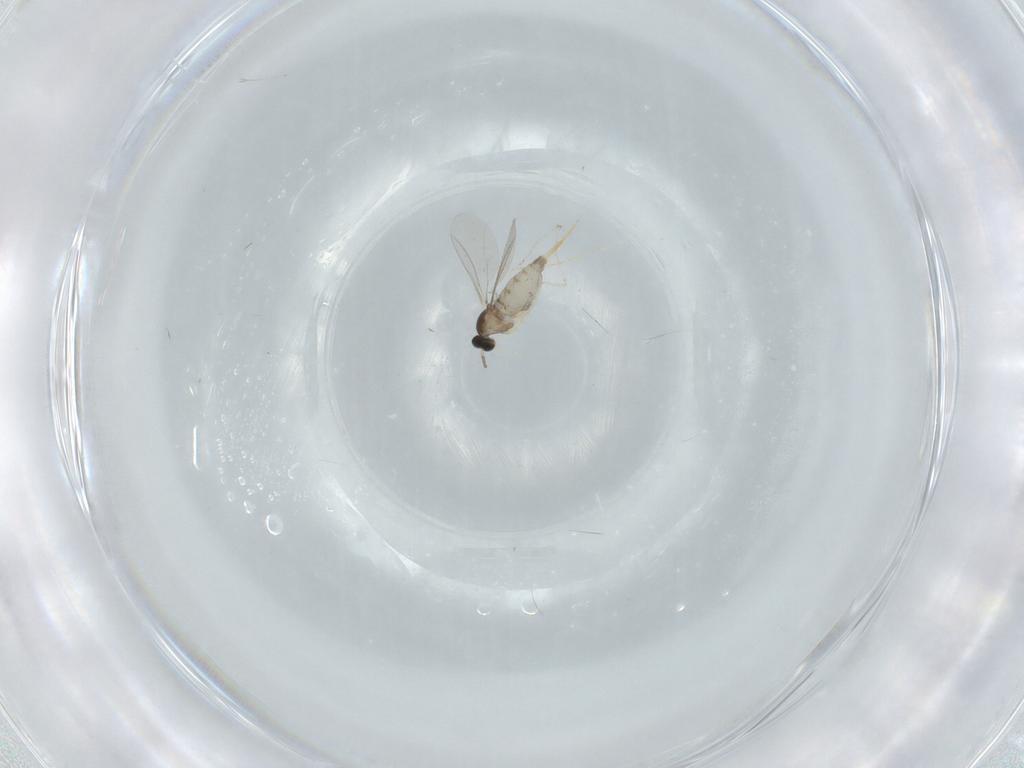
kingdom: Animalia
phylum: Arthropoda
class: Insecta
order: Diptera
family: Cecidomyiidae
